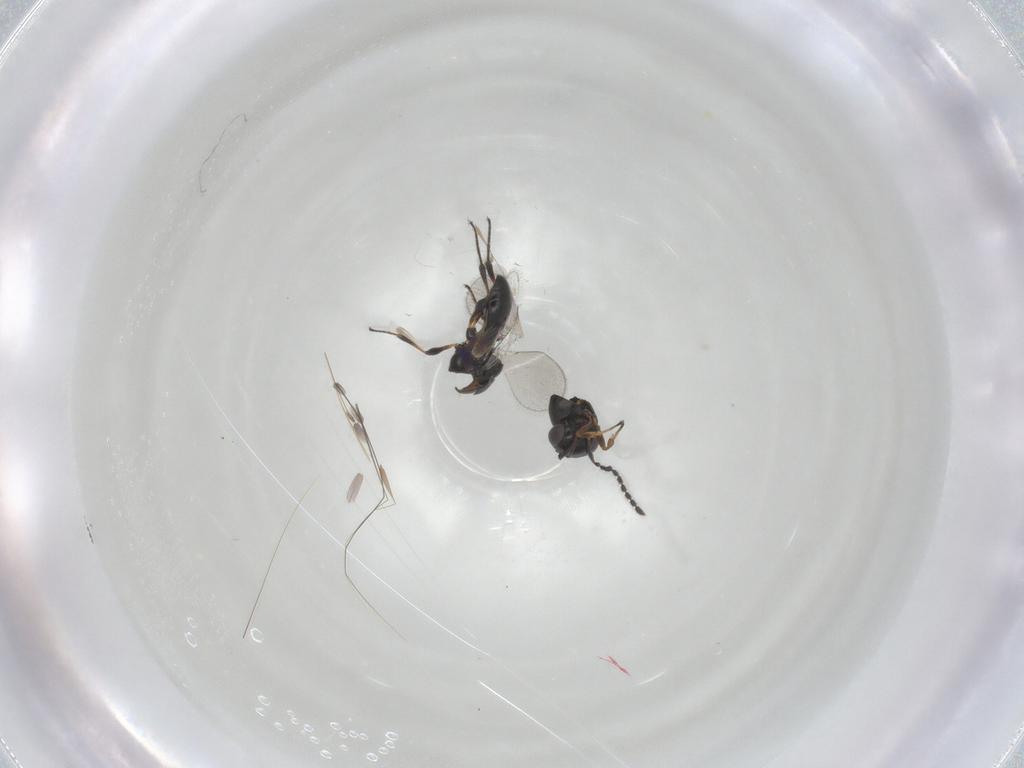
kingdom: Animalia
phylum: Arthropoda
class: Insecta
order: Hymenoptera
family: Platygastridae
